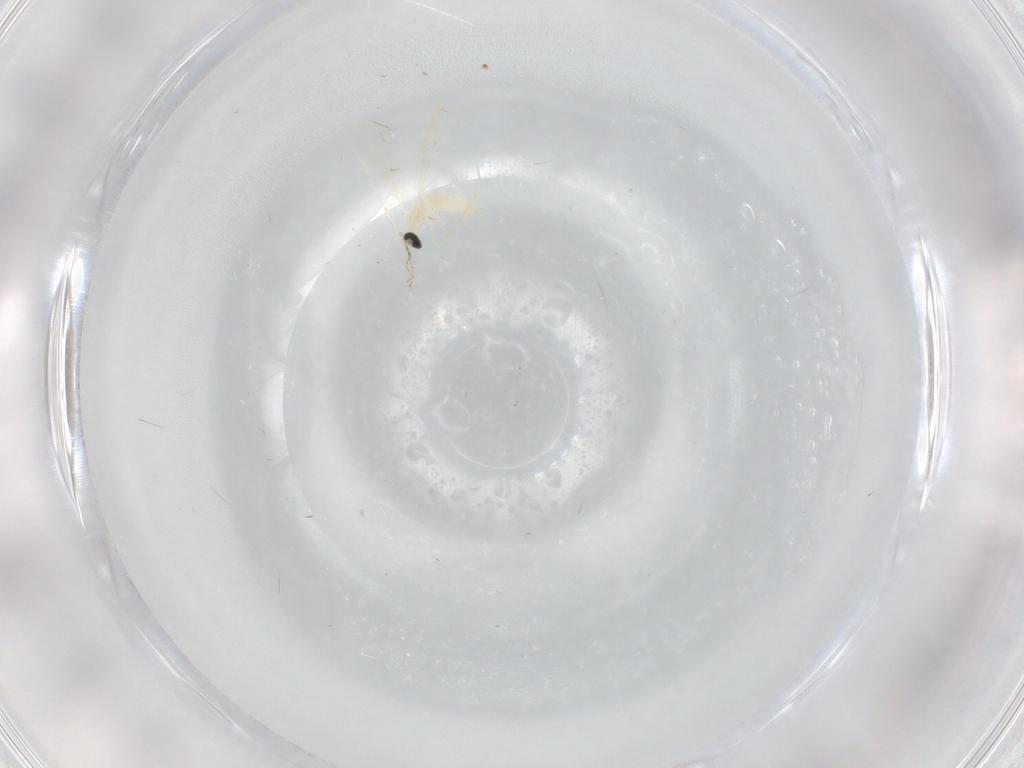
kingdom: Animalia
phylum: Arthropoda
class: Insecta
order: Diptera
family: Cecidomyiidae
